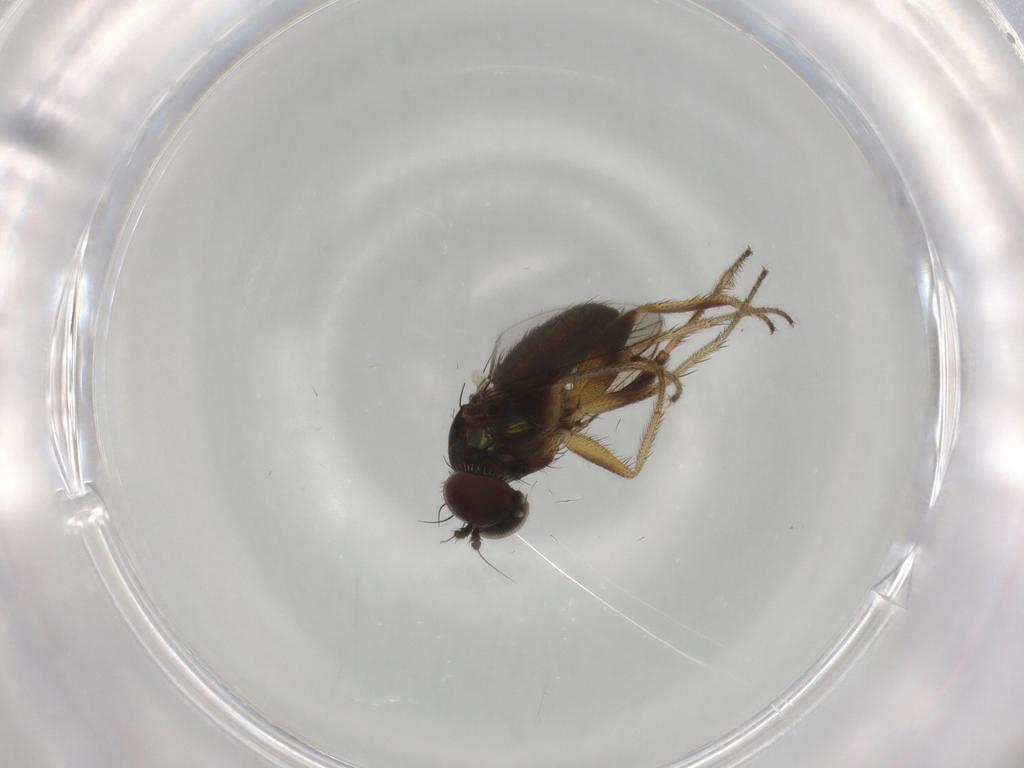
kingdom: Animalia
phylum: Arthropoda
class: Insecta
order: Diptera
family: Dolichopodidae
